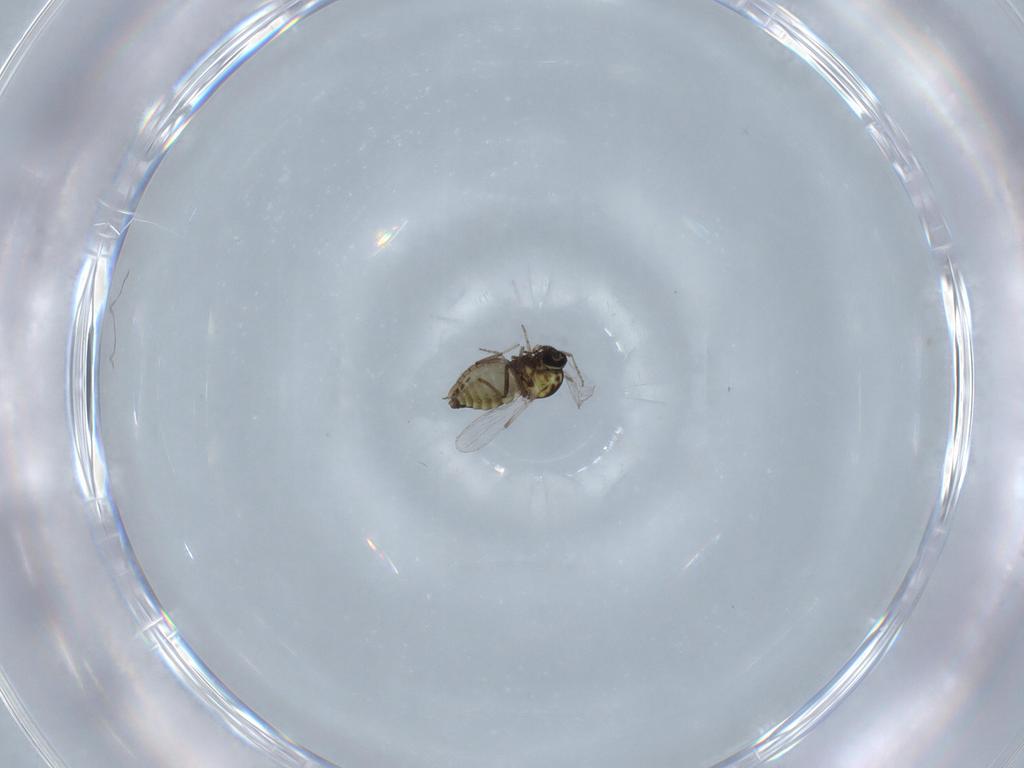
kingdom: Animalia
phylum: Arthropoda
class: Insecta
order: Diptera
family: Ceratopogonidae
